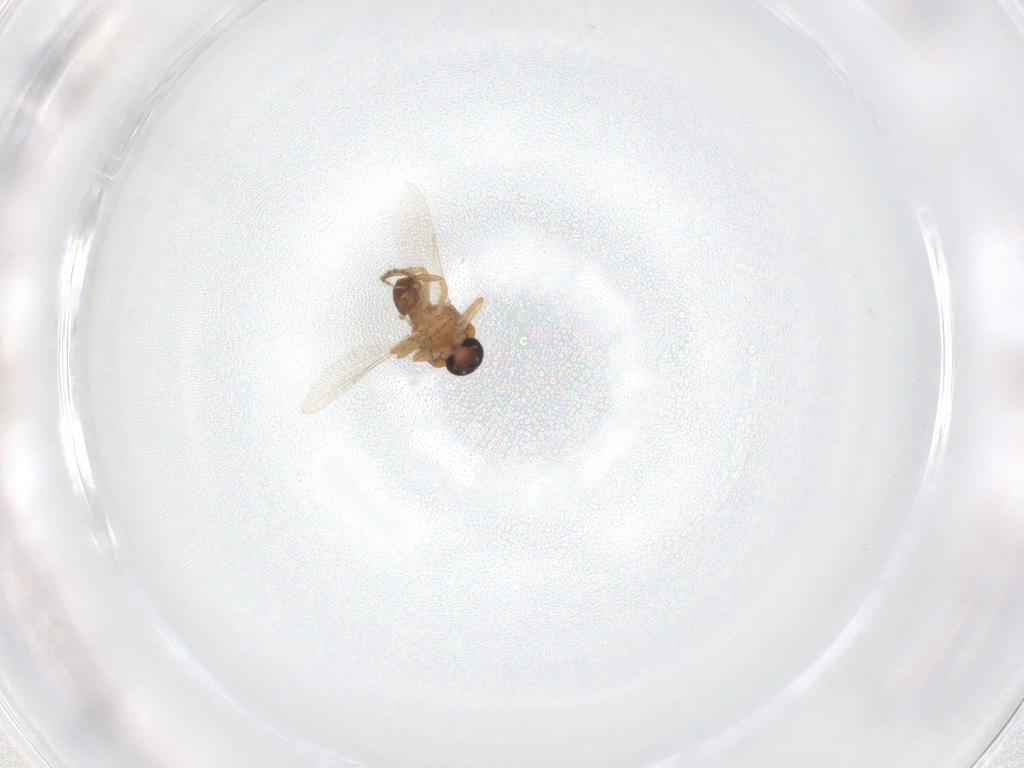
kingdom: Animalia
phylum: Arthropoda
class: Insecta
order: Diptera
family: Ceratopogonidae
